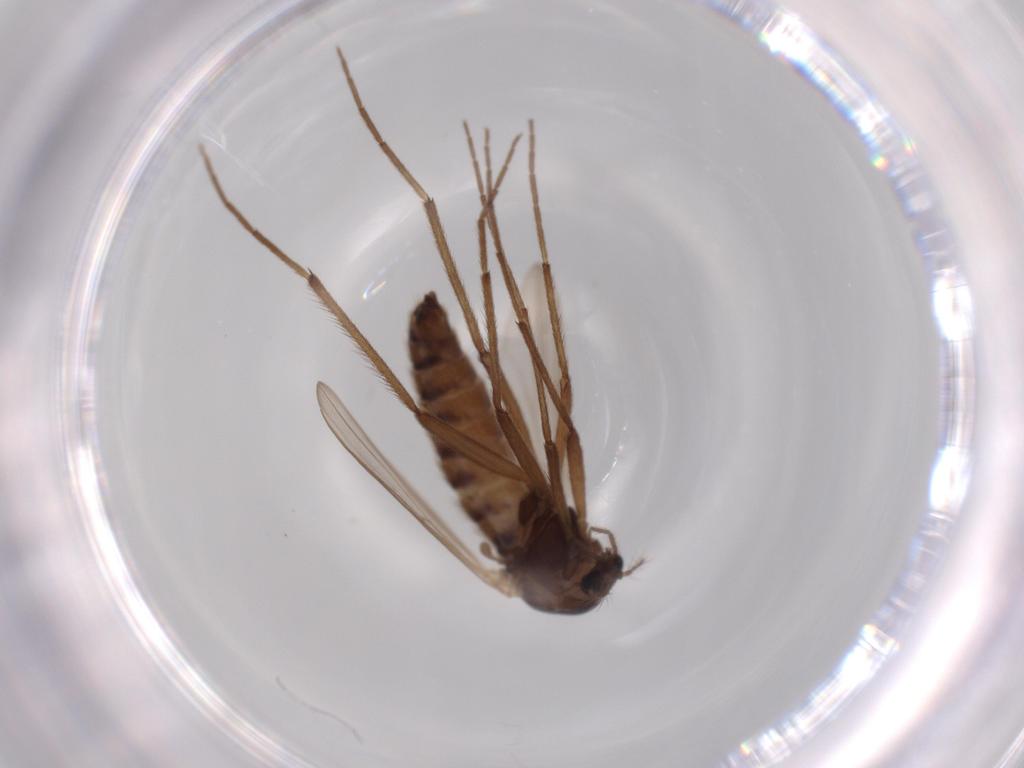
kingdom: Animalia
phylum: Arthropoda
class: Insecta
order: Diptera
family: Chironomidae
